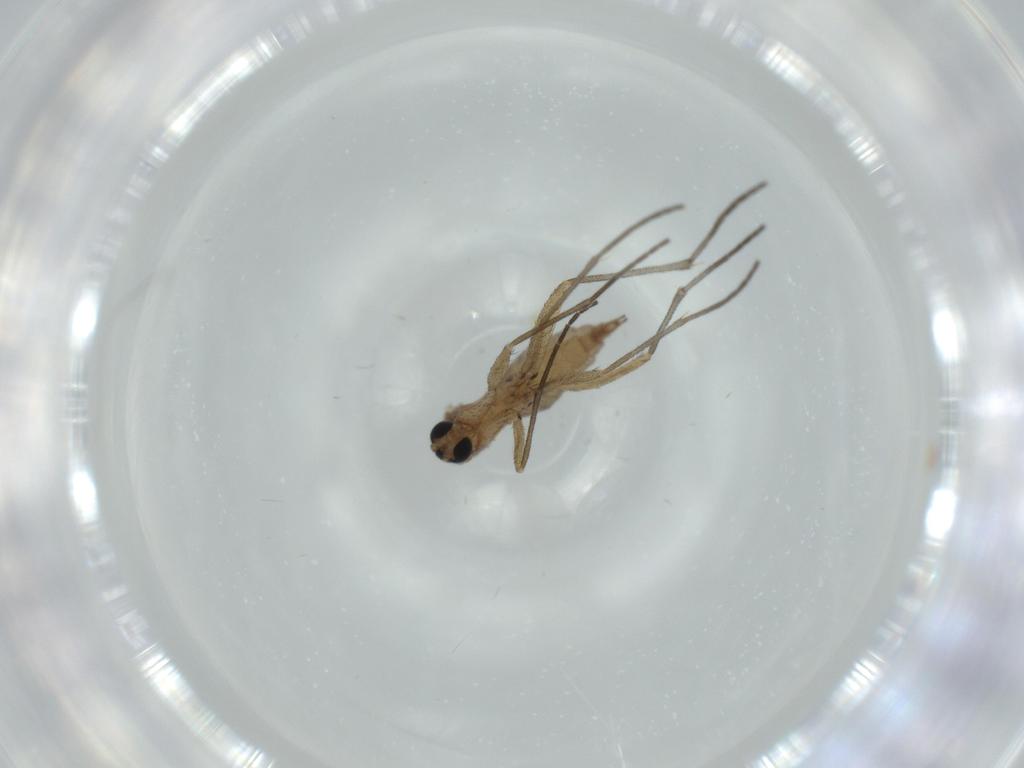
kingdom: Animalia
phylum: Arthropoda
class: Insecta
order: Diptera
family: Sciaridae
